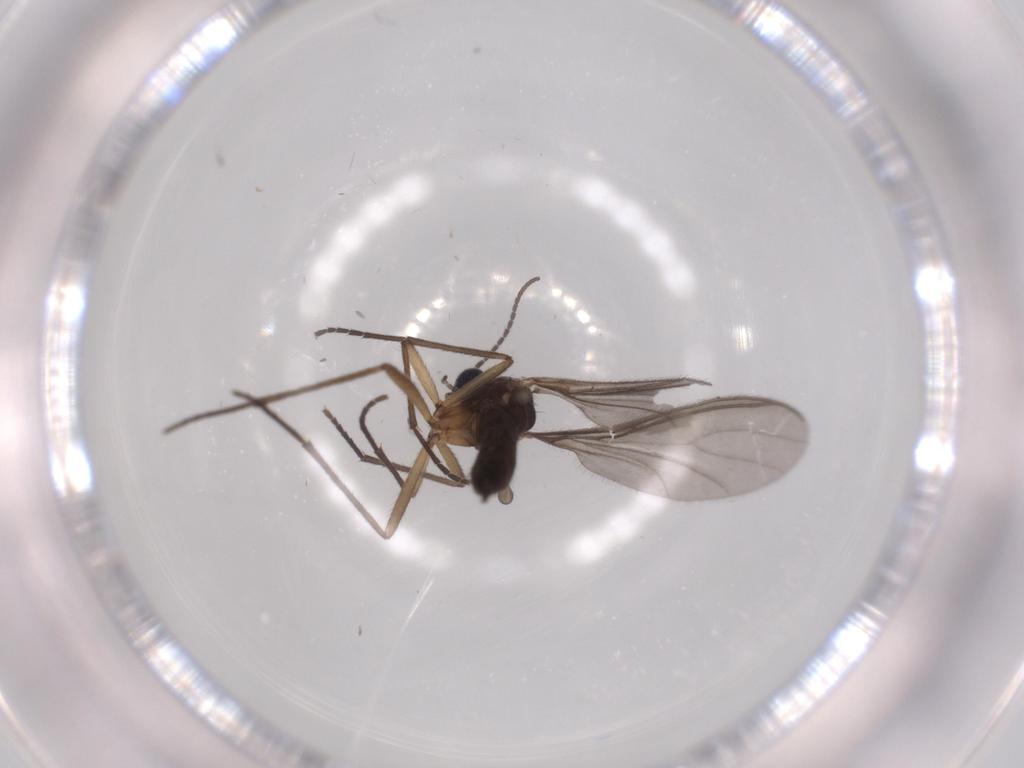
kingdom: Animalia
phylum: Arthropoda
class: Insecta
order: Diptera
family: Sciaridae
